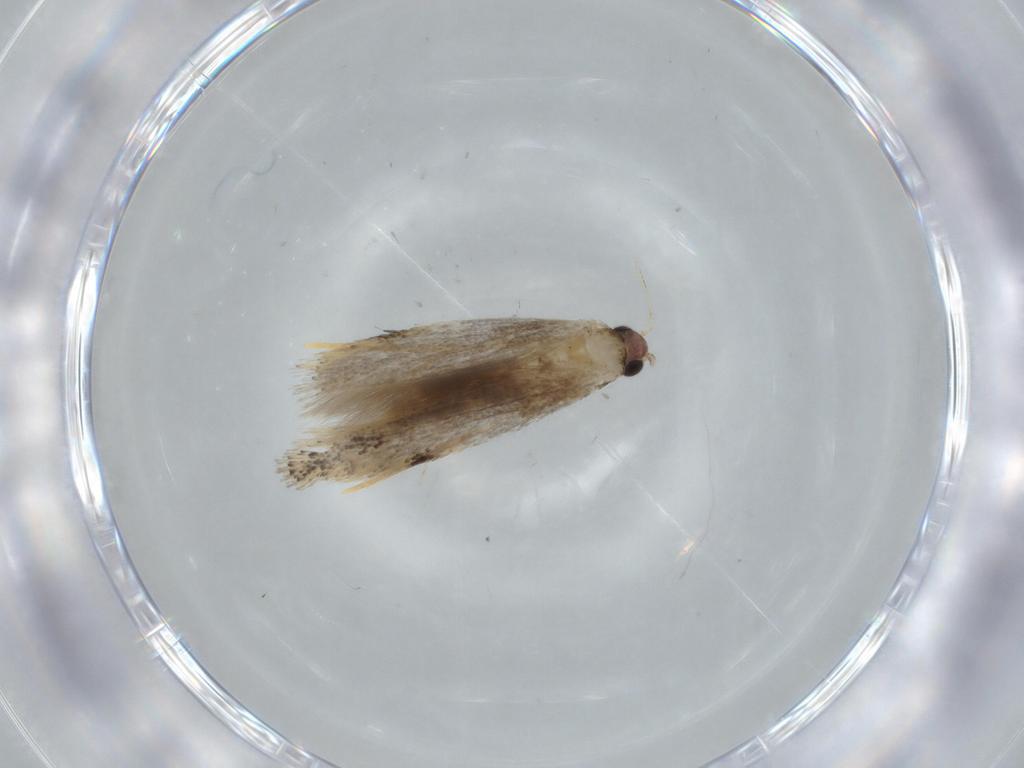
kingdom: Animalia
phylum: Arthropoda
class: Insecta
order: Lepidoptera
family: Tineidae
